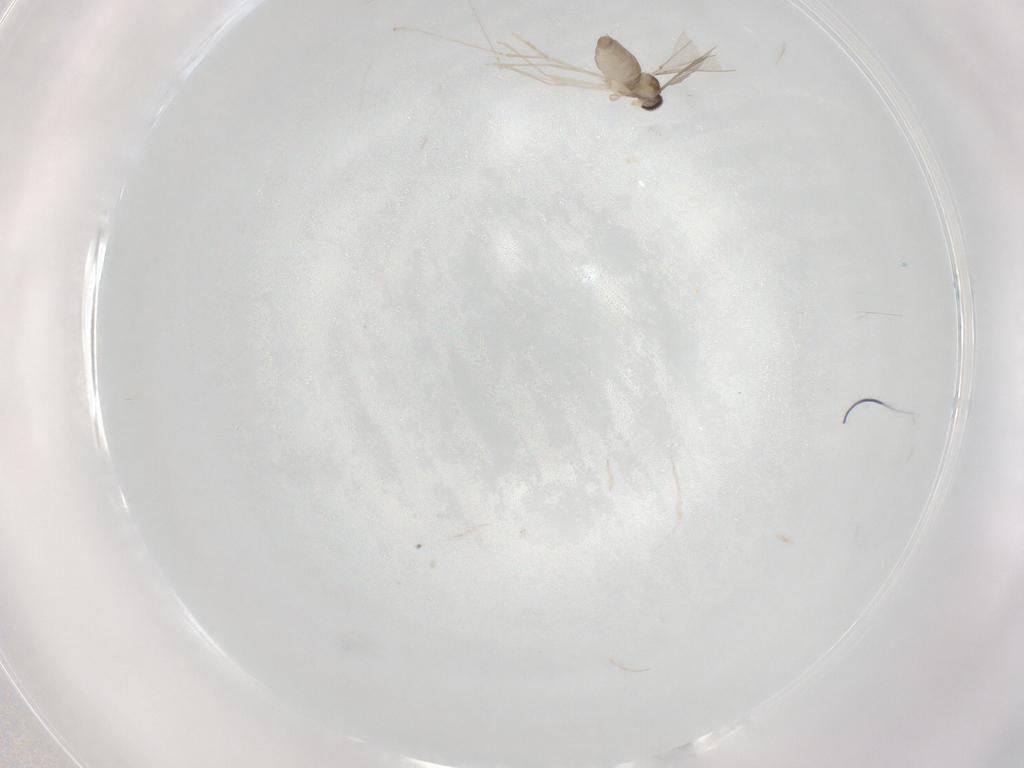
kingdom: Animalia
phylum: Arthropoda
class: Insecta
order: Diptera
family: Cecidomyiidae
